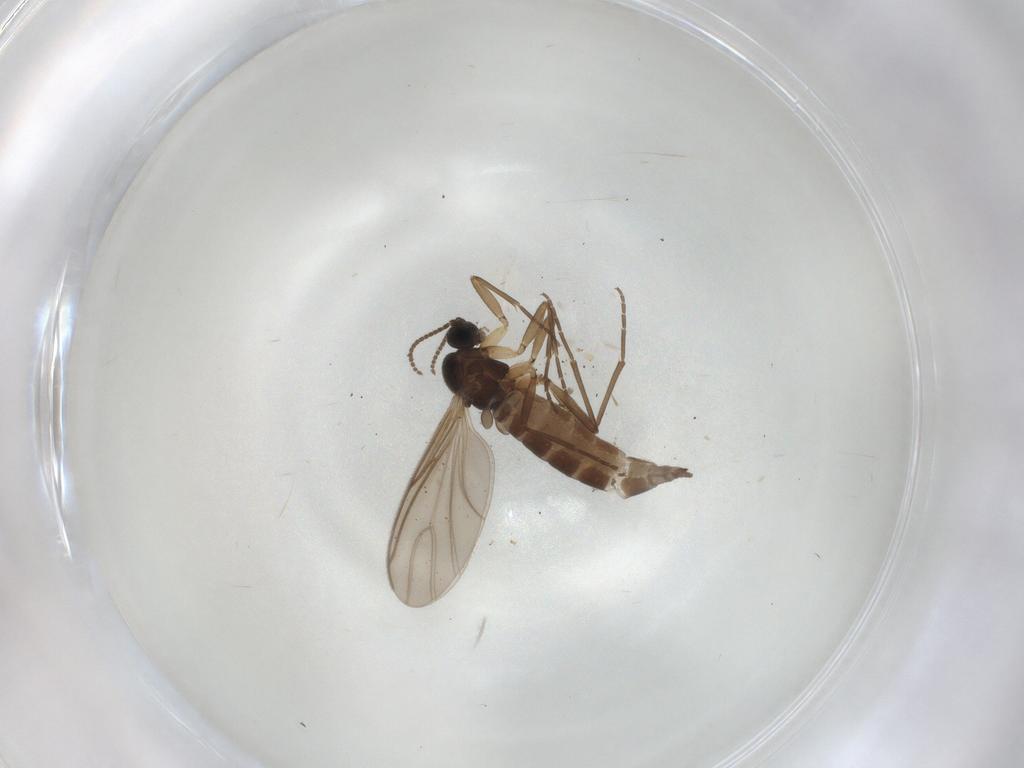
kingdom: Animalia
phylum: Arthropoda
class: Insecta
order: Diptera
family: Sciaridae
